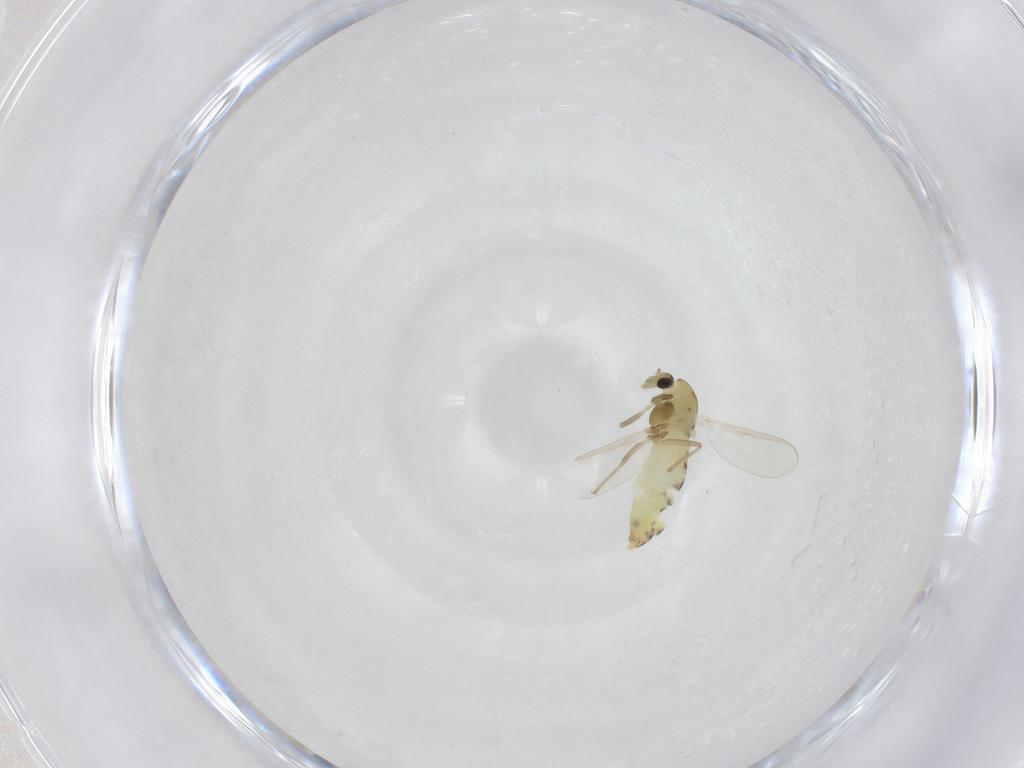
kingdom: Animalia
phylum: Arthropoda
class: Insecta
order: Diptera
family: Chironomidae
